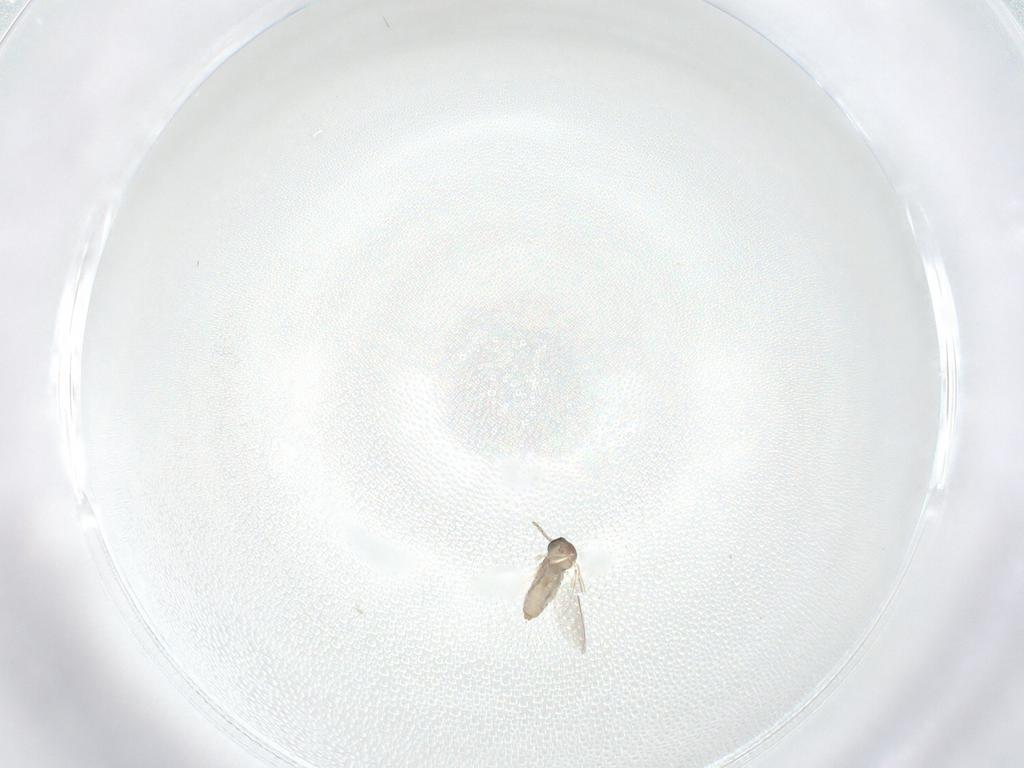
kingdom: Animalia
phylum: Arthropoda
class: Insecta
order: Diptera
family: Cecidomyiidae
